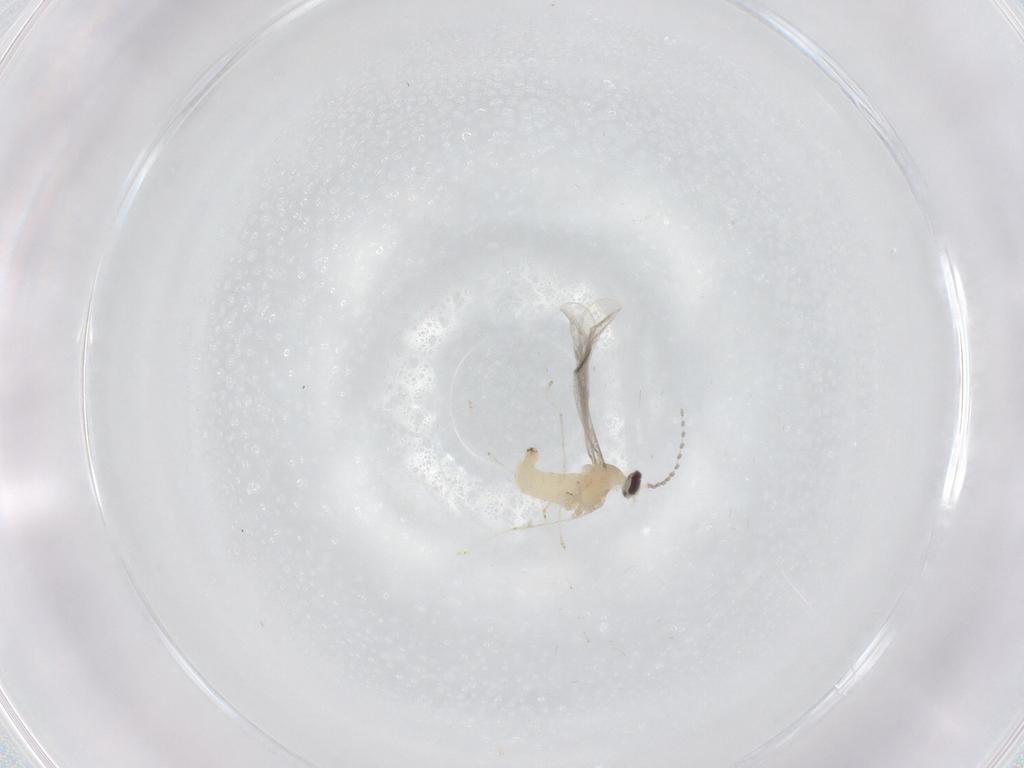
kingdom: Animalia
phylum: Arthropoda
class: Insecta
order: Diptera
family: Cecidomyiidae
